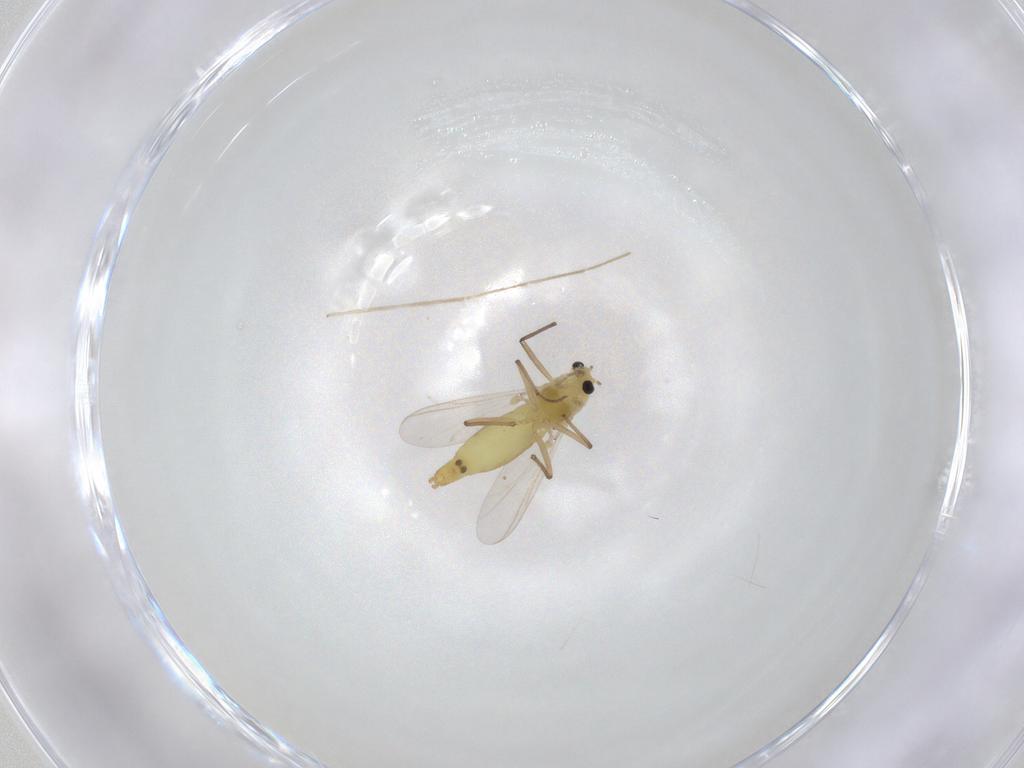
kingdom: Animalia
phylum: Arthropoda
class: Insecta
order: Diptera
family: Chironomidae
